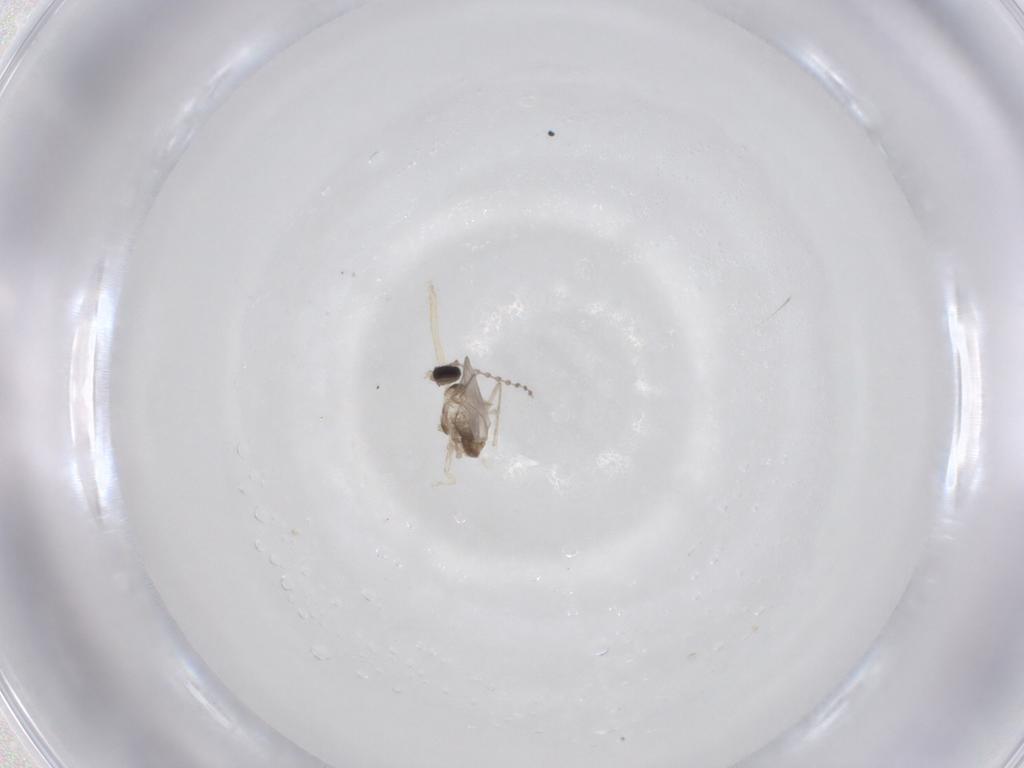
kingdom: Animalia
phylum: Arthropoda
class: Insecta
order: Diptera
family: Cecidomyiidae
